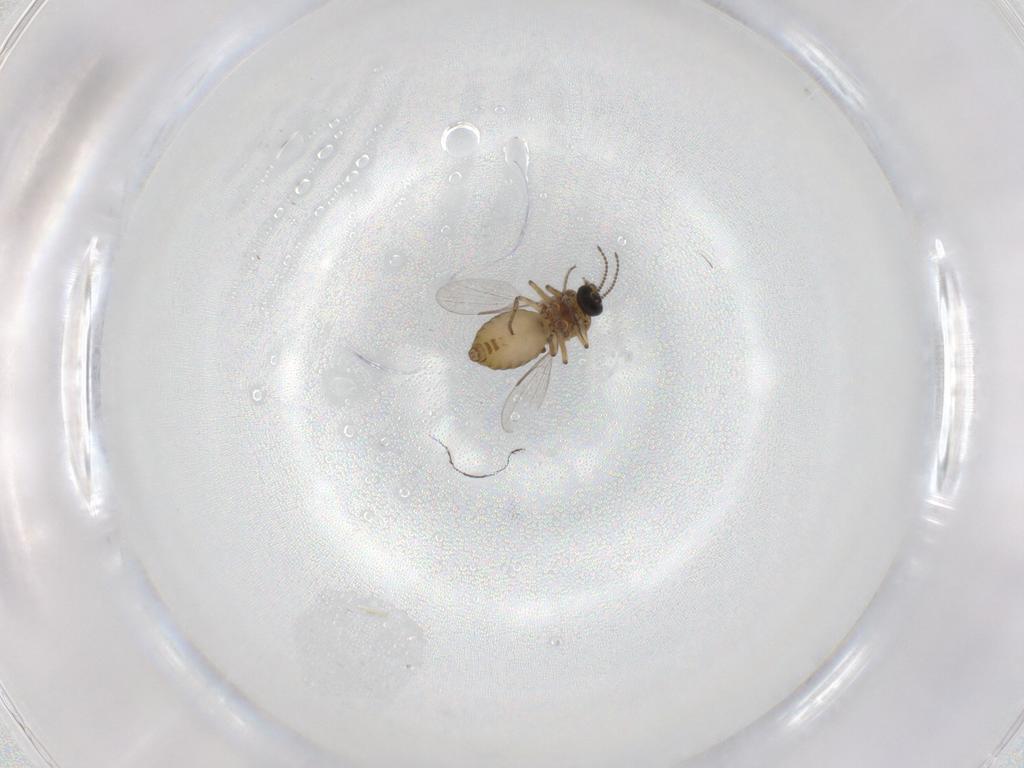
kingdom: Animalia
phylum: Arthropoda
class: Insecta
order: Diptera
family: Ceratopogonidae
